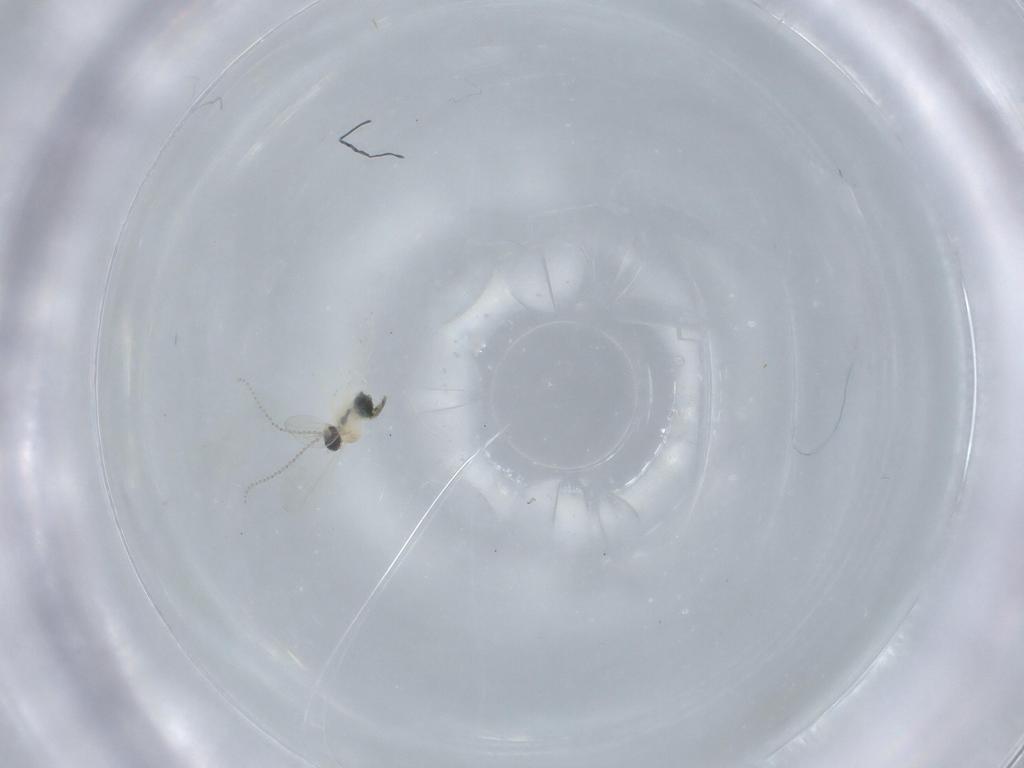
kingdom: Animalia
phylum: Arthropoda
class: Insecta
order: Diptera
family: Cecidomyiidae
